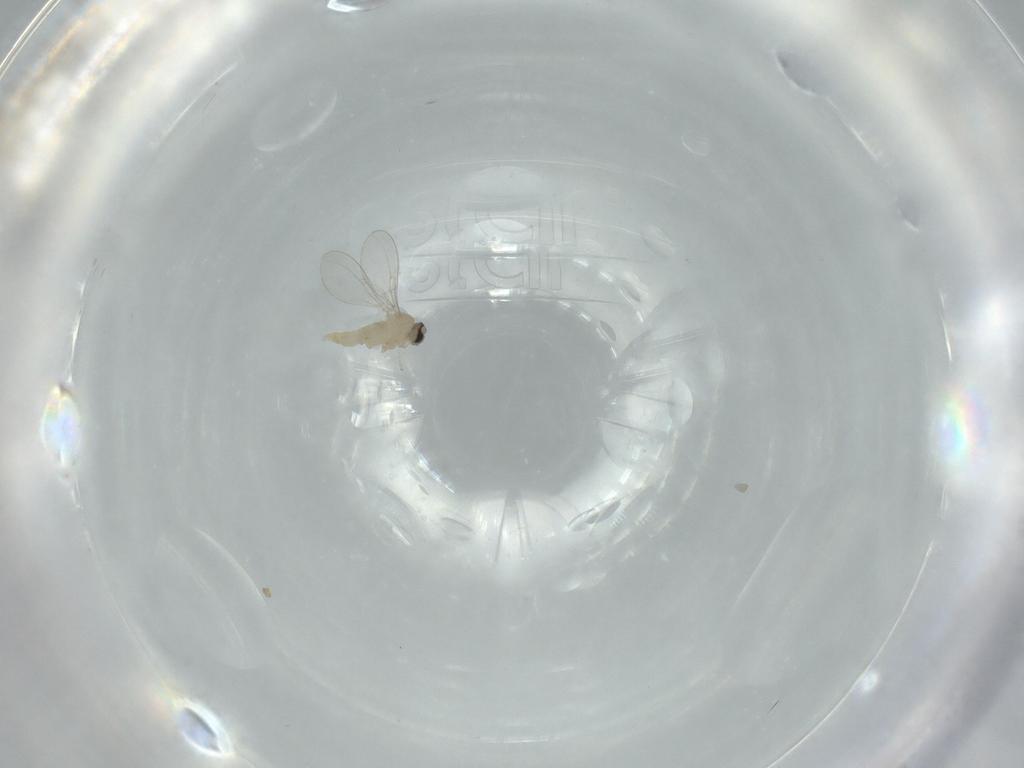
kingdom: Animalia
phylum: Arthropoda
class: Insecta
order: Diptera
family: Cecidomyiidae
